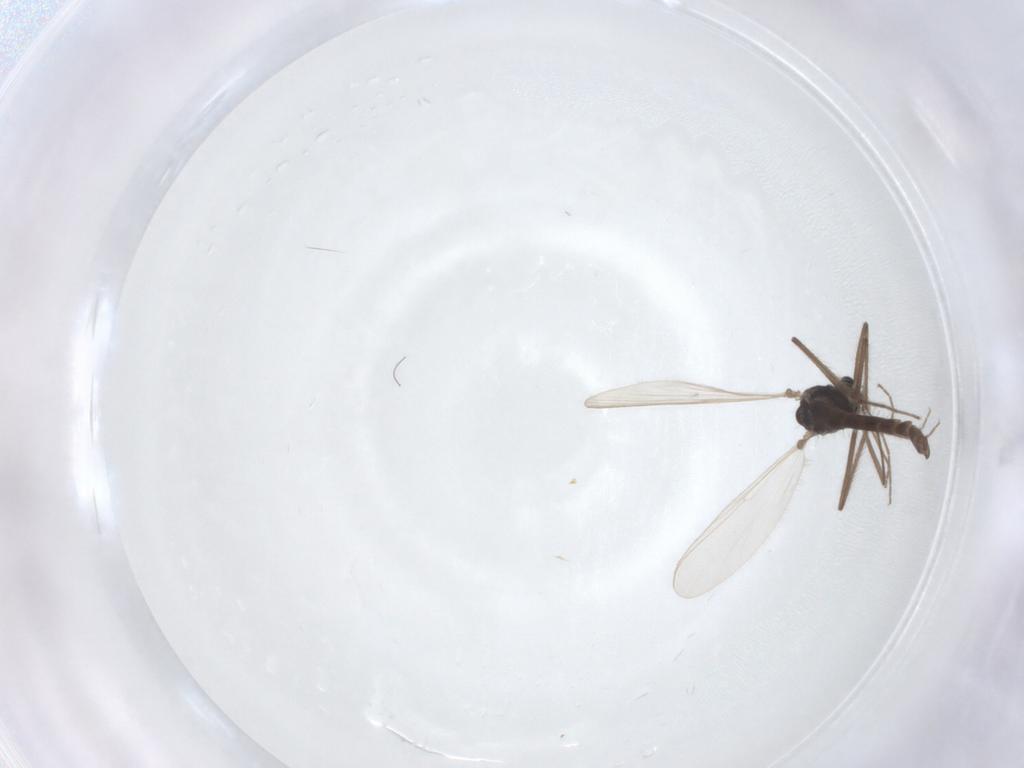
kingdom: Animalia
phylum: Arthropoda
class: Insecta
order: Diptera
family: Chironomidae
